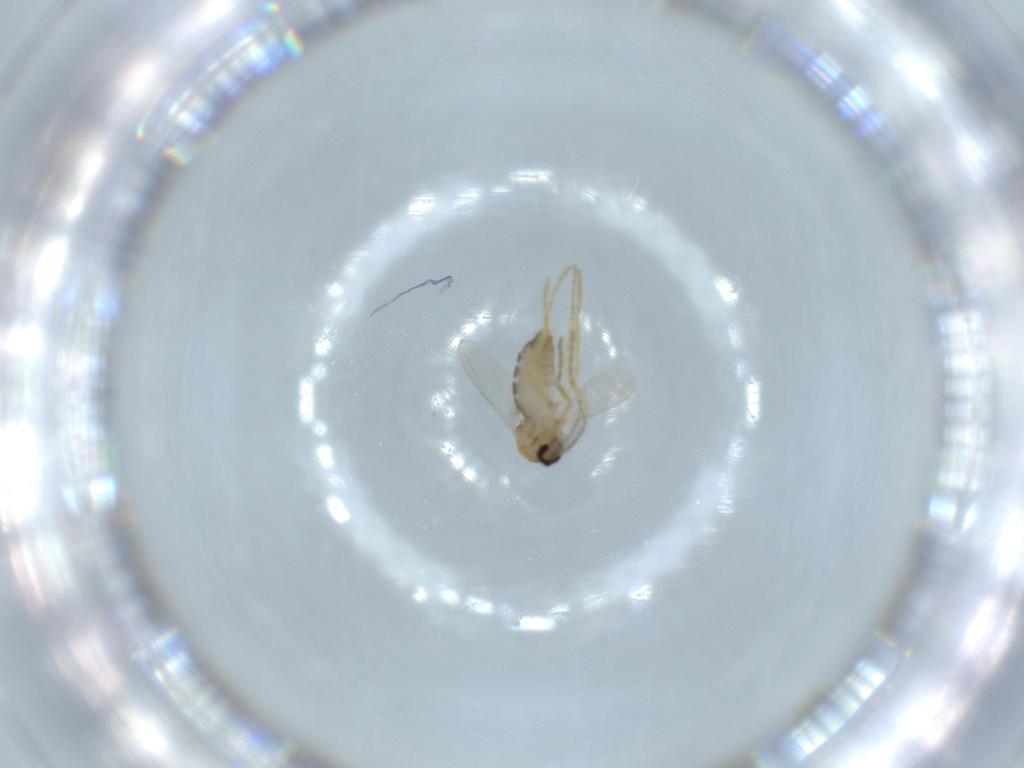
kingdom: Animalia
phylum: Arthropoda
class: Insecta
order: Diptera
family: Ceratopogonidae
